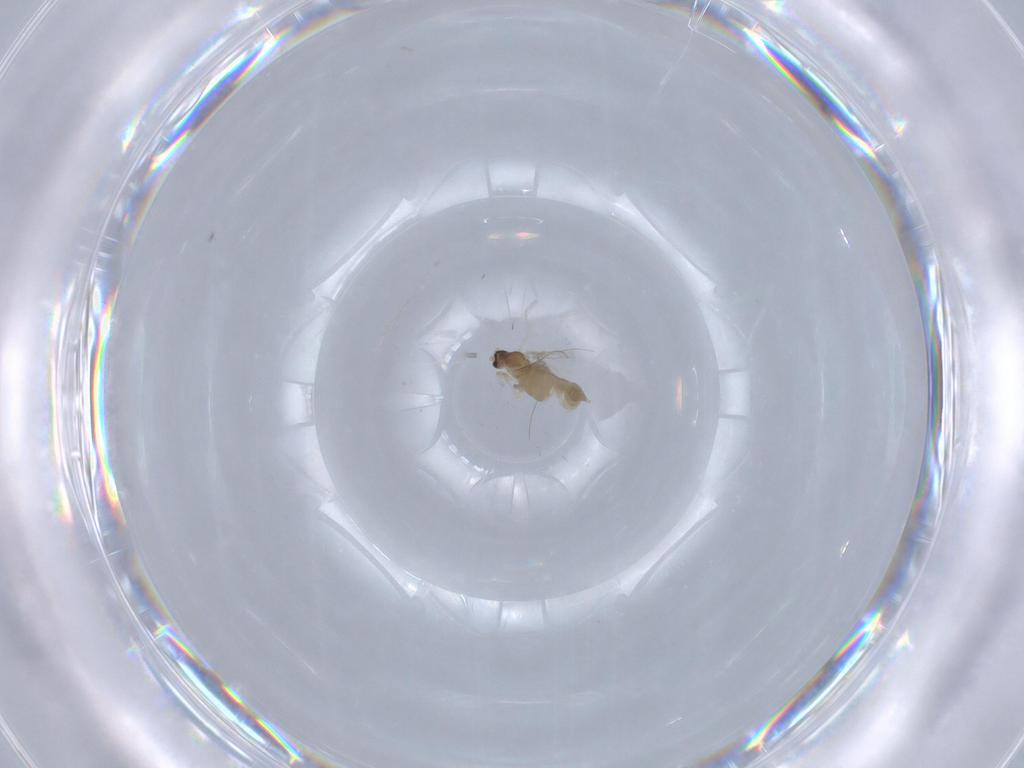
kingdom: Animalia
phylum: Arthropoda
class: Insecta
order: Diptera
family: Cecidomyiidae
